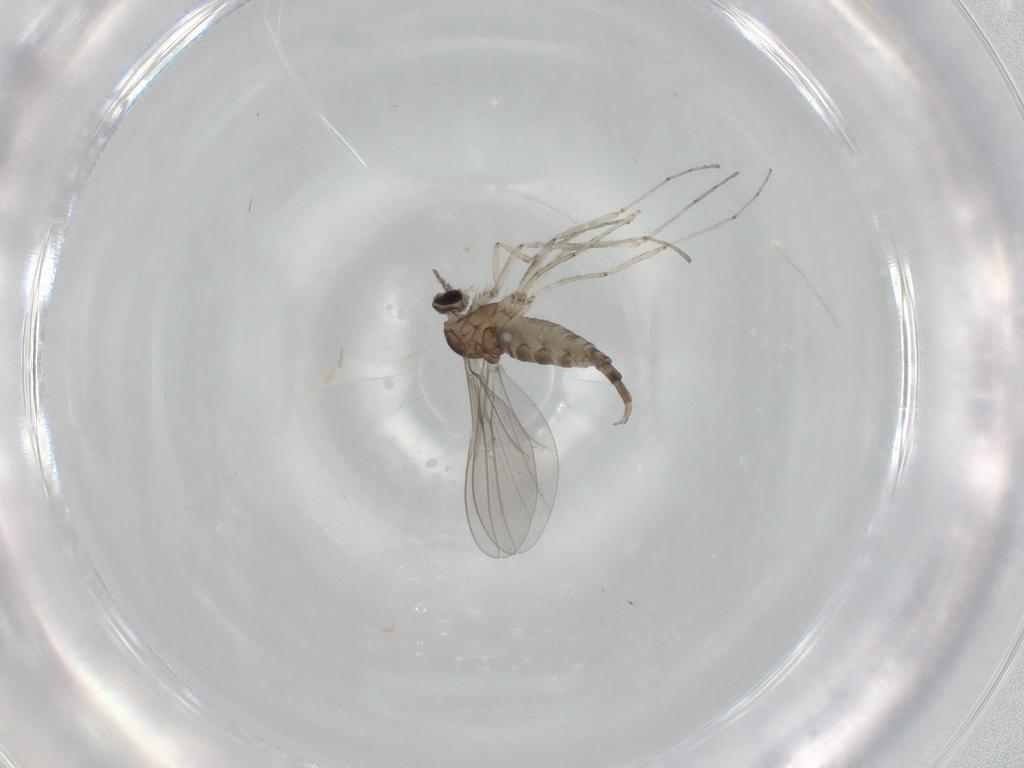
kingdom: Animalia
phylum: Arthropoda
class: Insecta
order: Diptera
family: Cecidomyiidae
